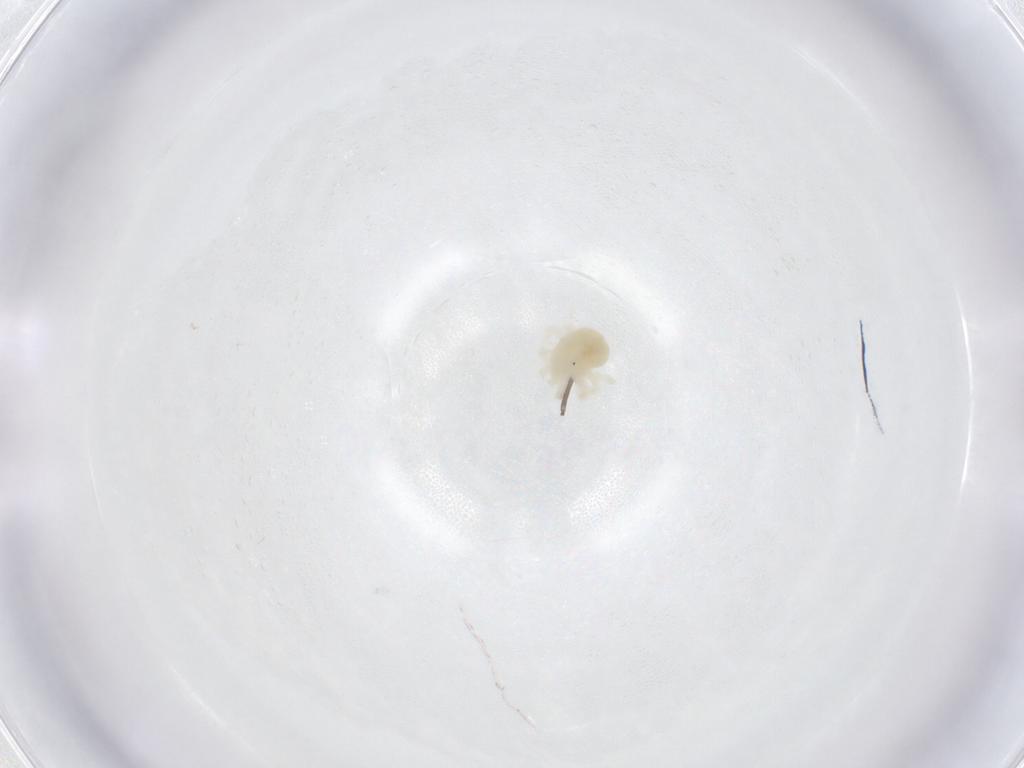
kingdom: Animalia
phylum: Arthropoda
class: Arachnida
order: Trombidiformes
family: Anystidae
